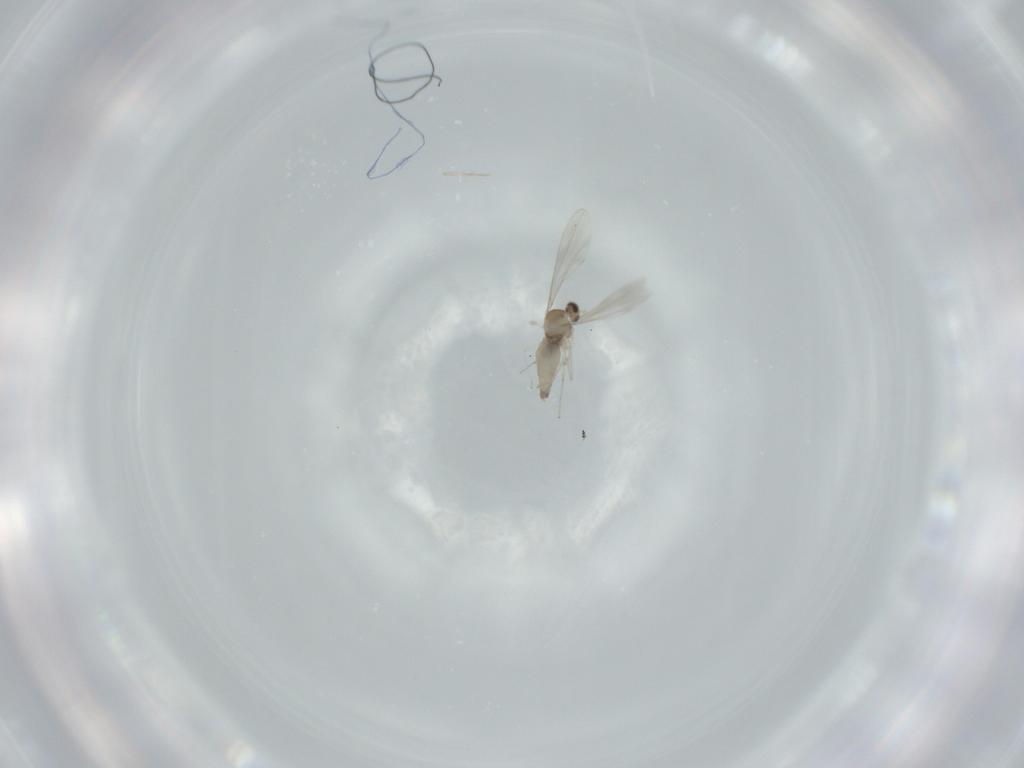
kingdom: Animalia
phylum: Arthropoda
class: Insecta
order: Diptera
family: Cecidomyiidae
